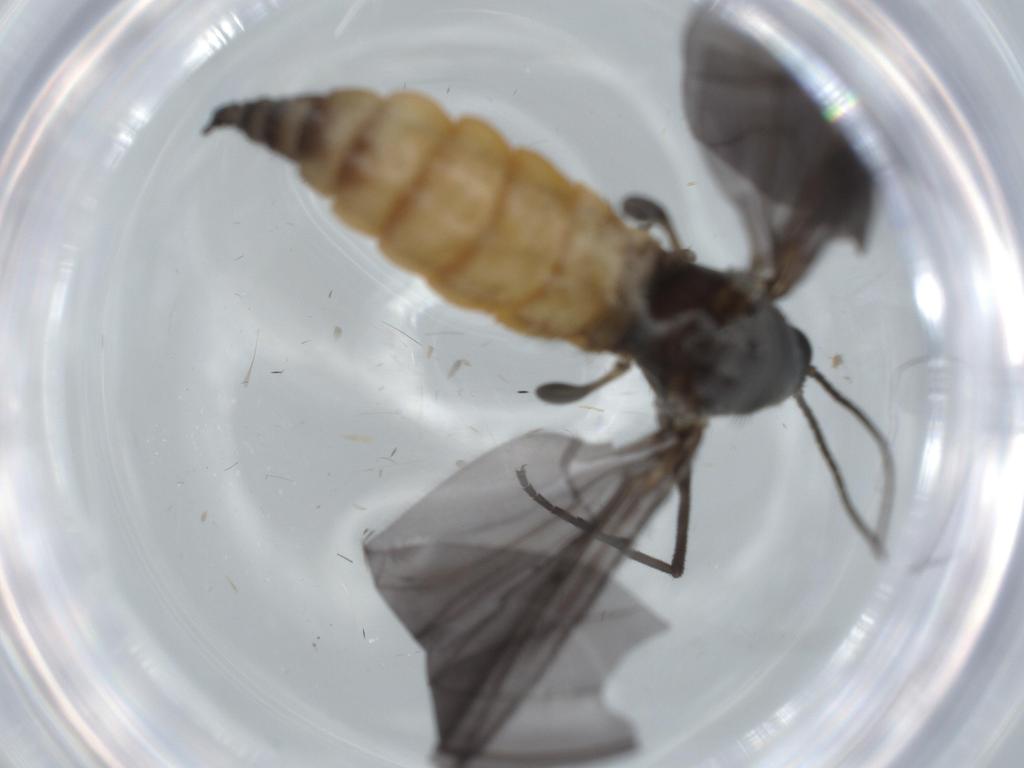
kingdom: Animalia
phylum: Arthropoda
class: Insecta
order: Diptera
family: Ceratopogonidae
